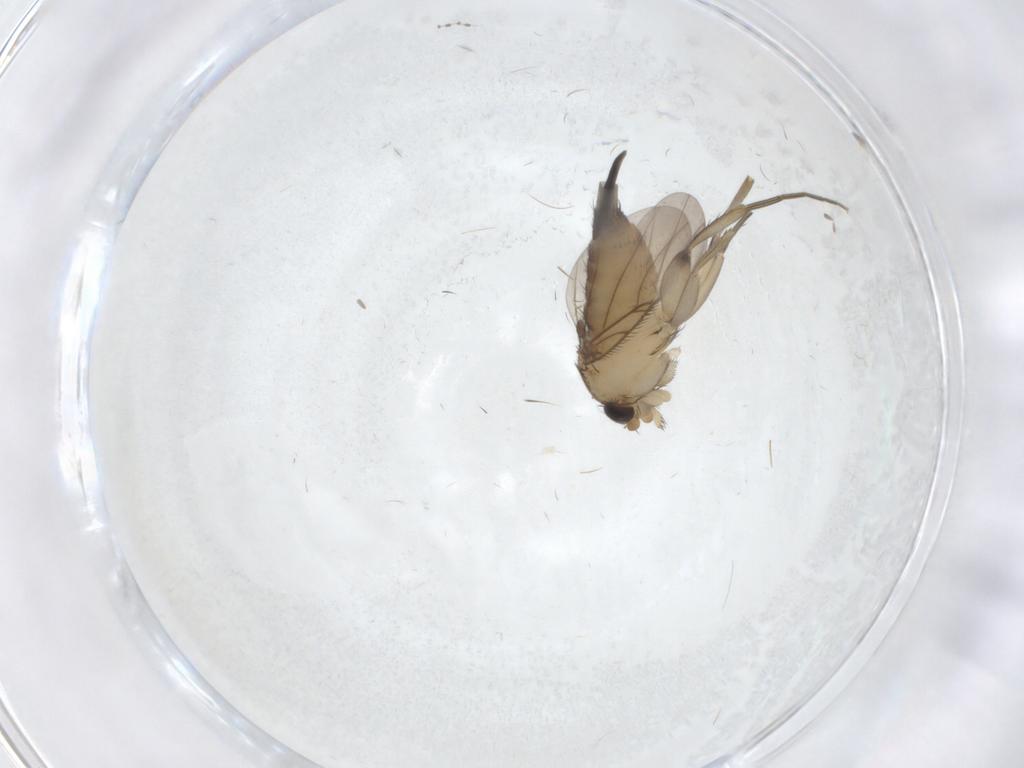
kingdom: Animalia
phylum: Arthropoda
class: Insecta
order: Diptera
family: Phoridae
